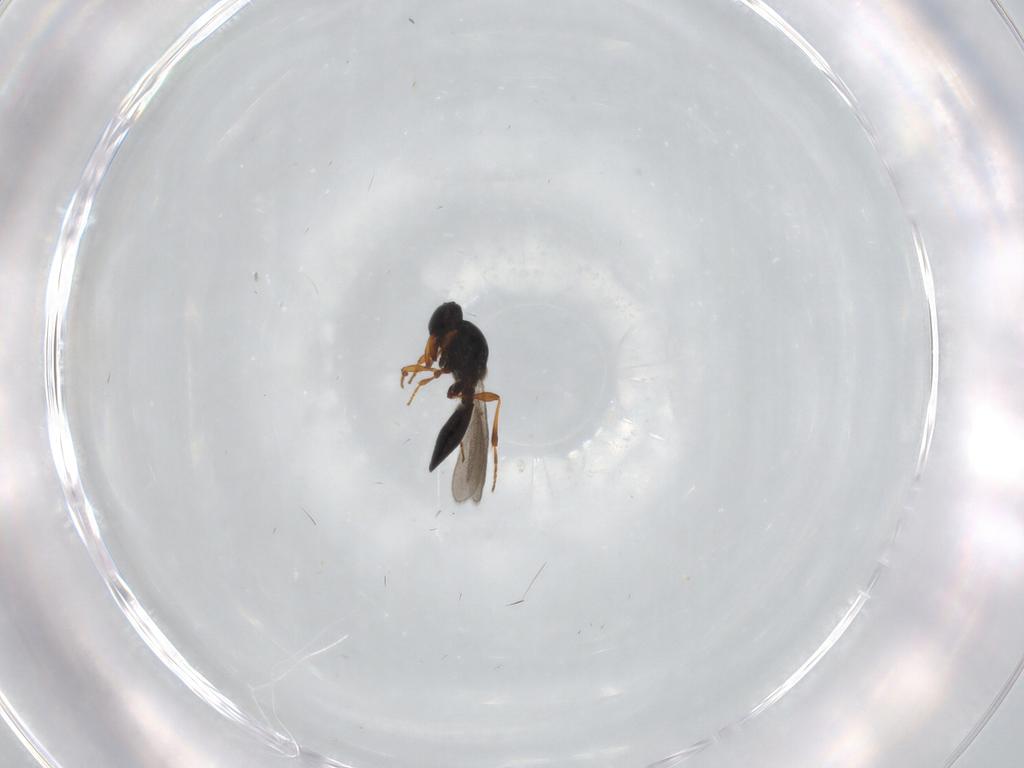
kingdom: Animalia
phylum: Arthropoda
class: Insecta
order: Hymenoptera
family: Platygastridae
